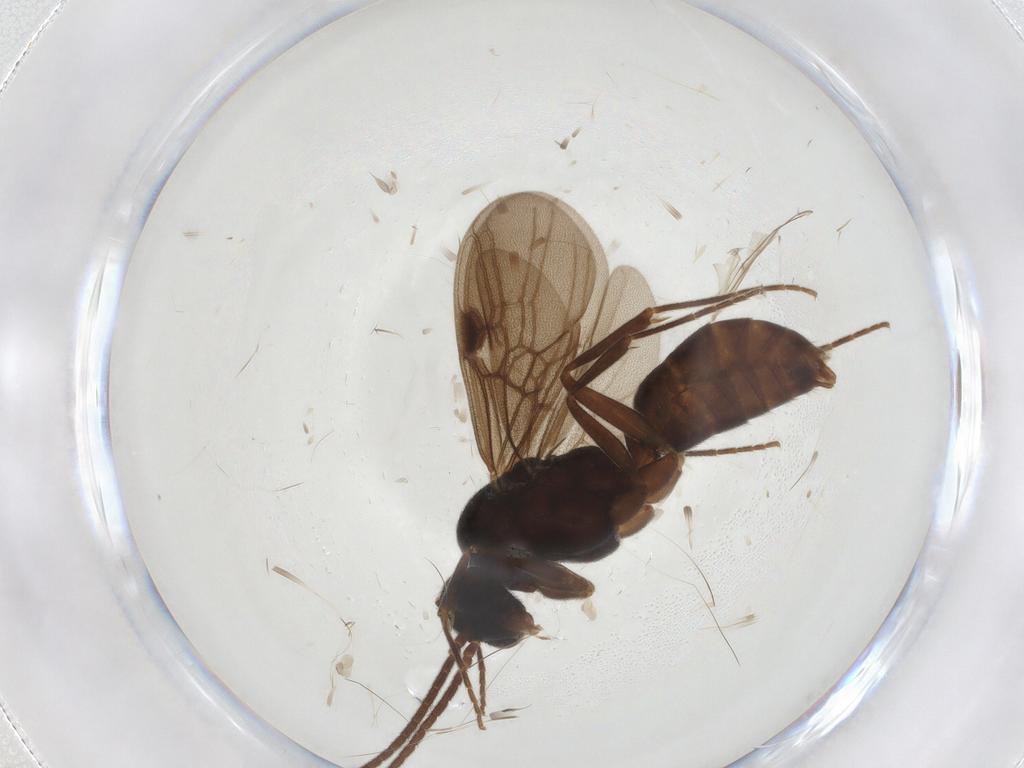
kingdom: Animalia
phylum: Arthropoda
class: Insecta
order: Hymenoptera
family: Formicidae
